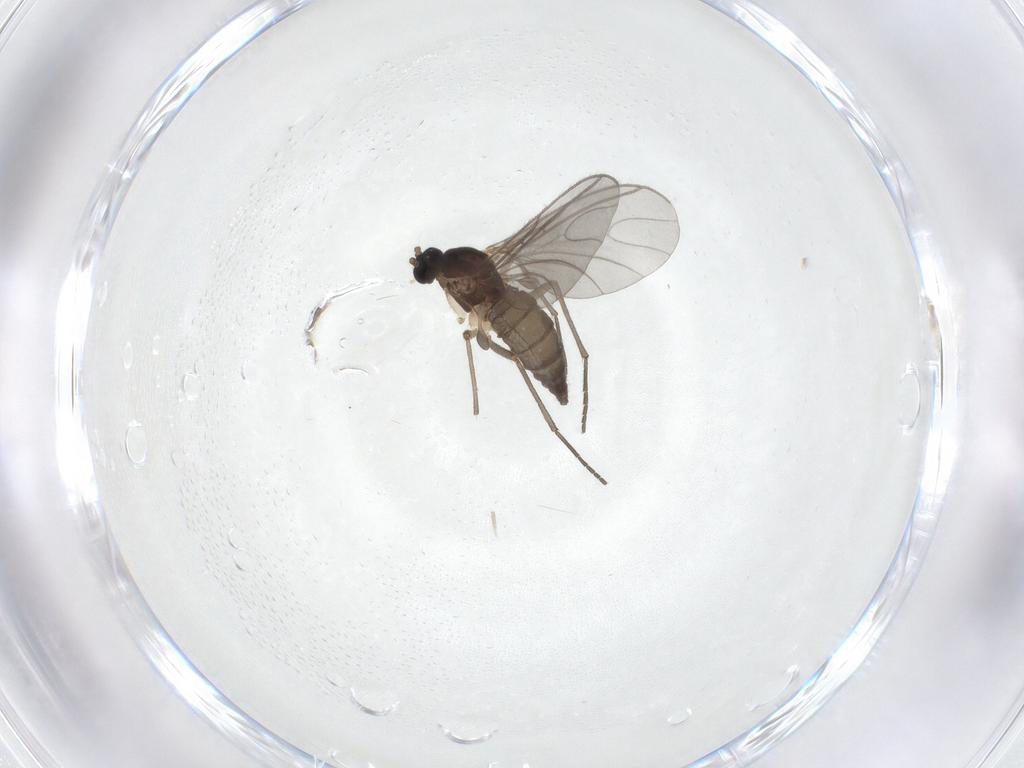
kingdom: Animalia
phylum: Arthropoda
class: Insecta
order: Diptera
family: Sciaridae
